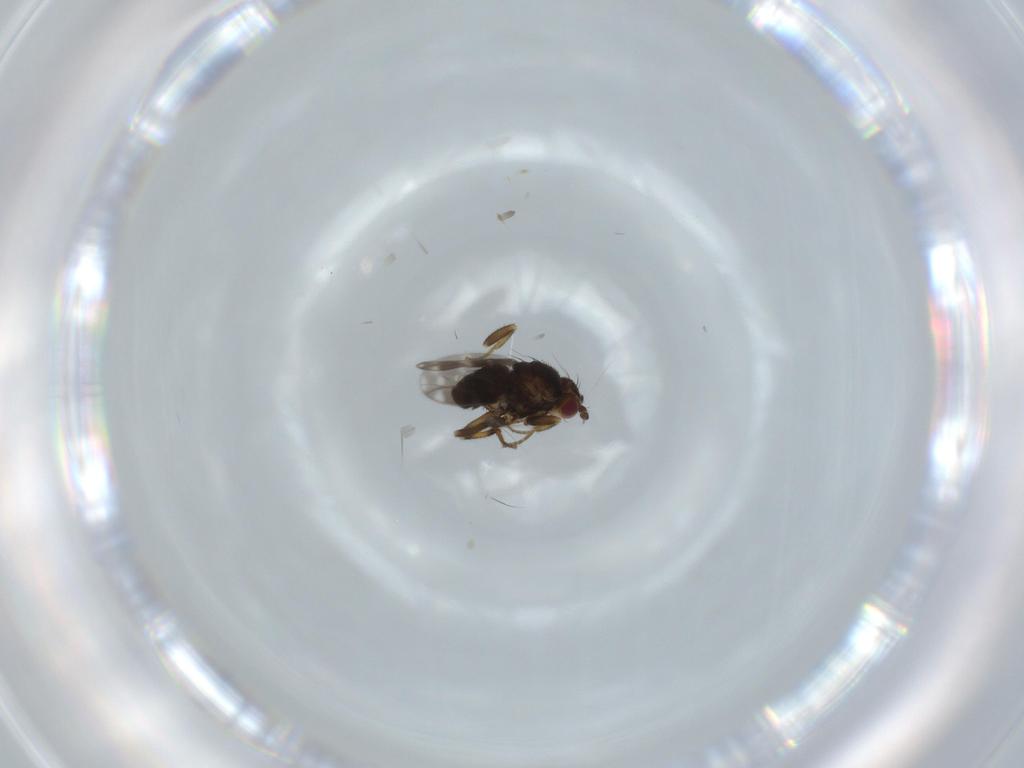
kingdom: Animalia
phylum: Arthropoda
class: Insecta
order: Diptera
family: Sphaeroceridae
